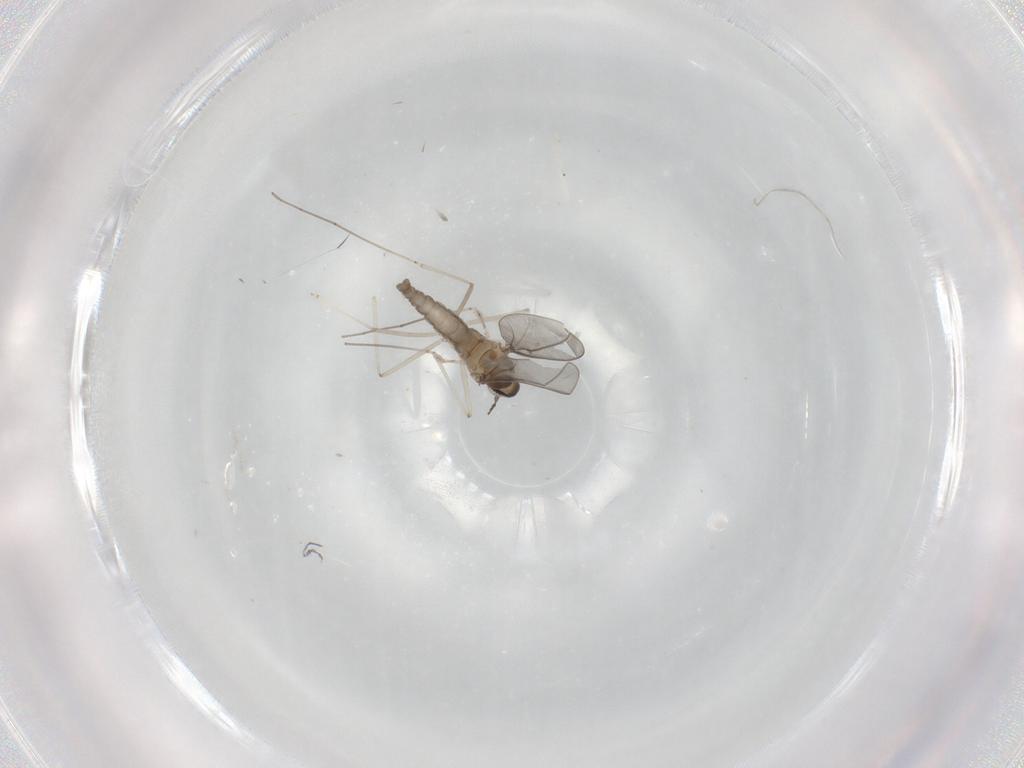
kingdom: Animalia
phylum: Arthropoda
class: Insecta
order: Diptera
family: Cecidomyiidae
